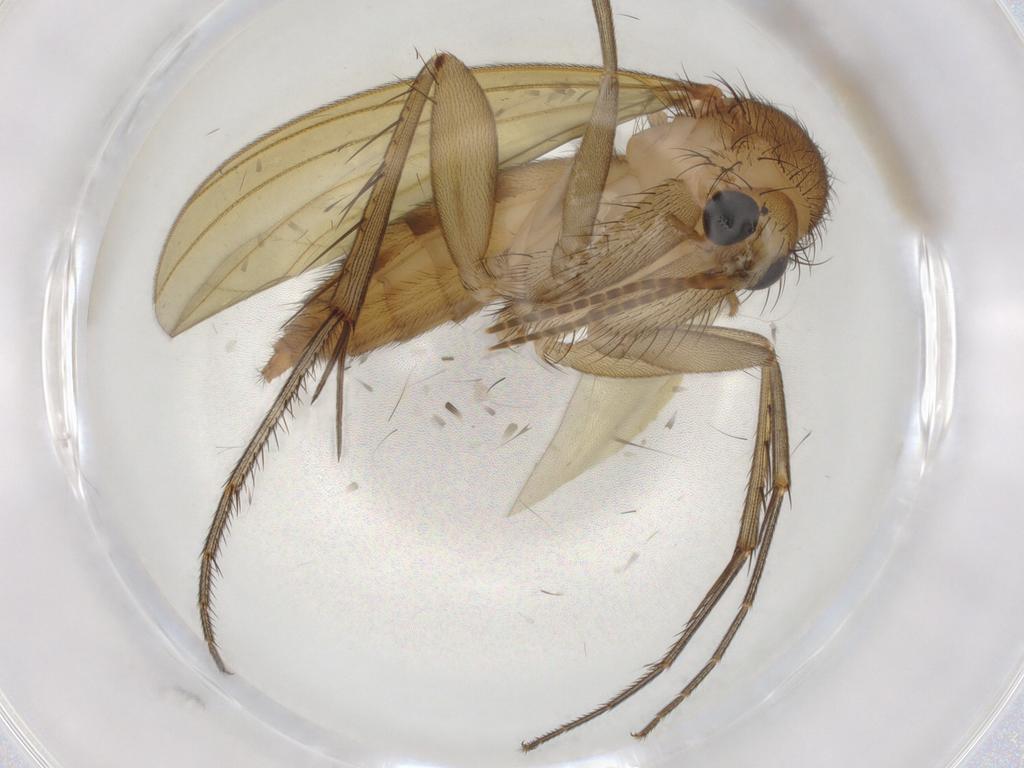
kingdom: Animalia
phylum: Arthropoda
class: Insecta
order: Diptera
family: Mycetophilidae
